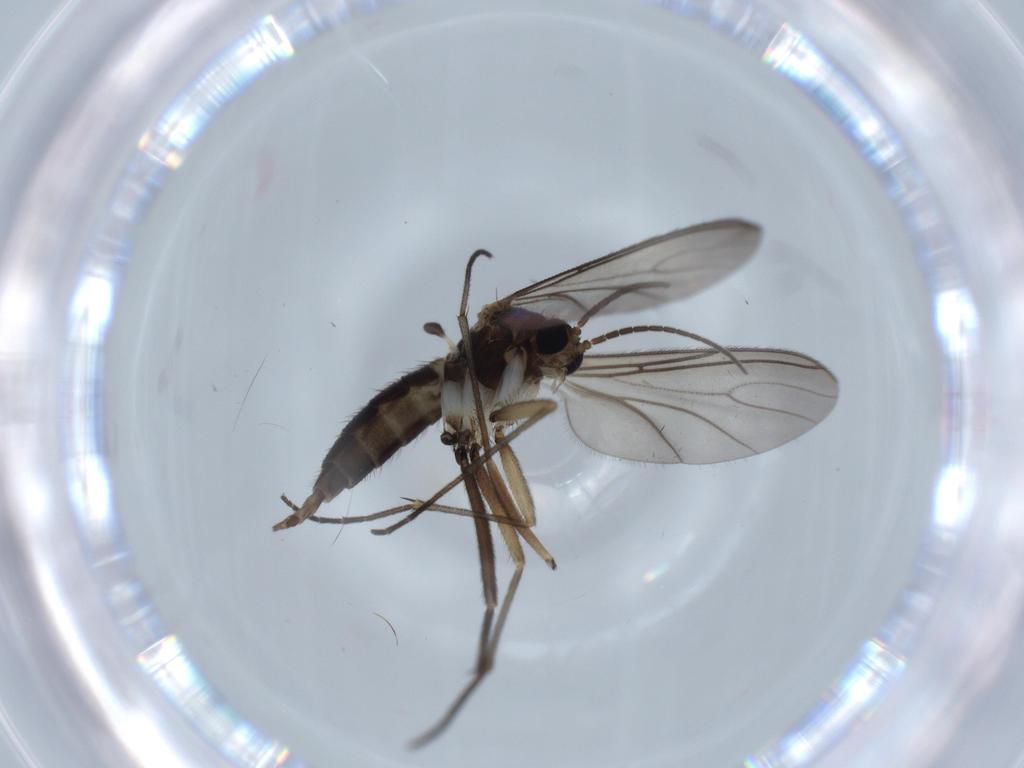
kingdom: Animalia
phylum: Arthropoda
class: Insecta
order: Diptera
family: Sciaridae
